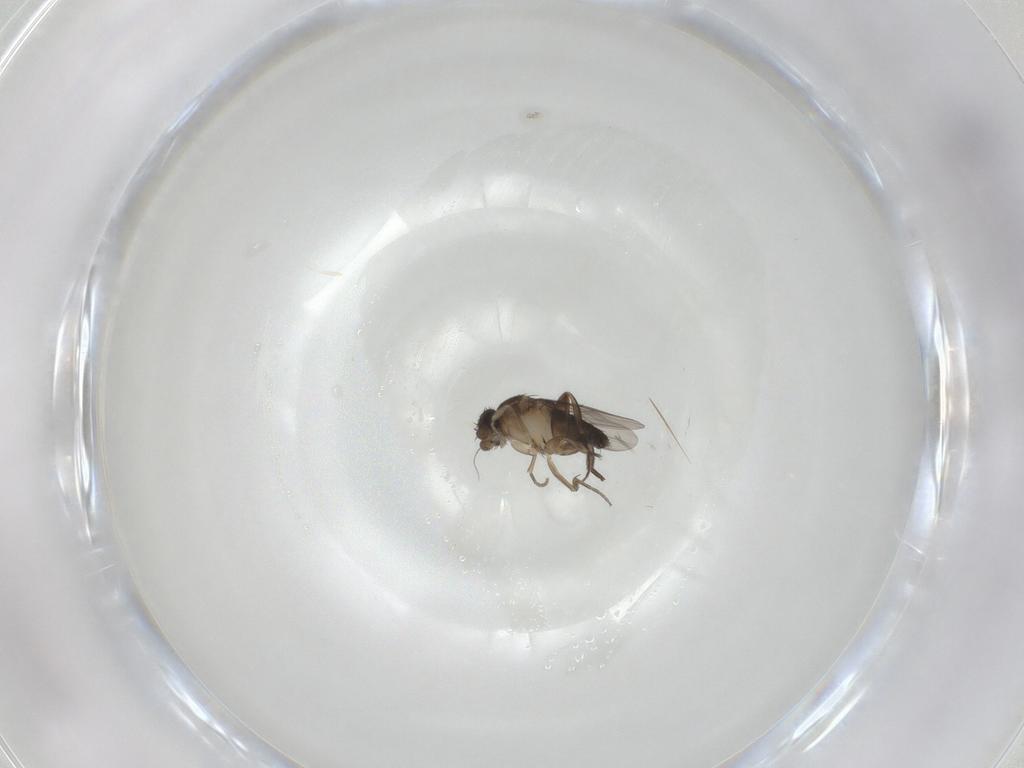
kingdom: Animalia
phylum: Arthropoda
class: Insecta
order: Diptera
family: Phoridae
